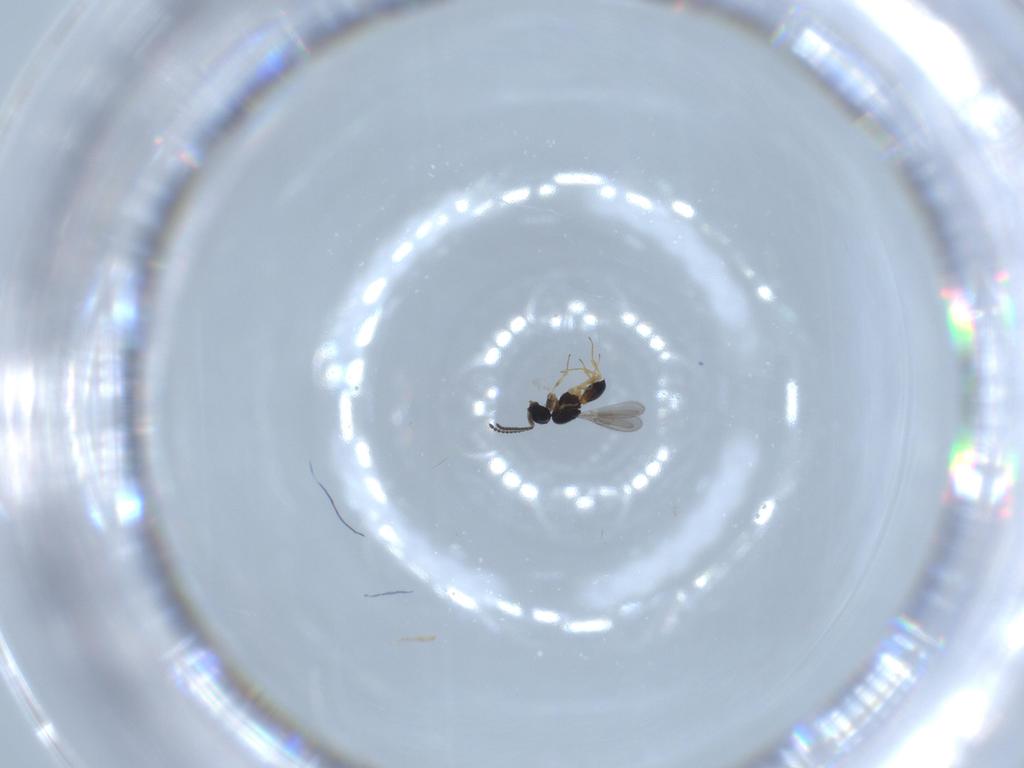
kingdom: Animalia
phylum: Arthropoda
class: Insecta
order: Hymenoptera
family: Scelionidae
